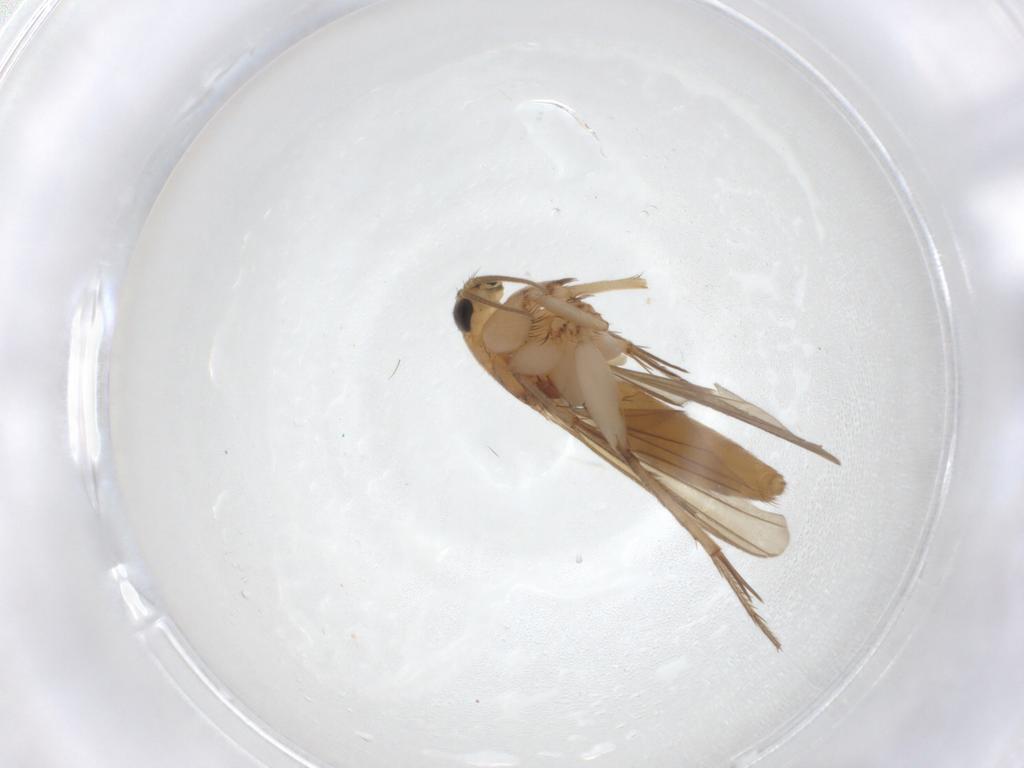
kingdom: Animalia
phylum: Arthropoda
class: Insecta
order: Diptera
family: Mycetophilidae
